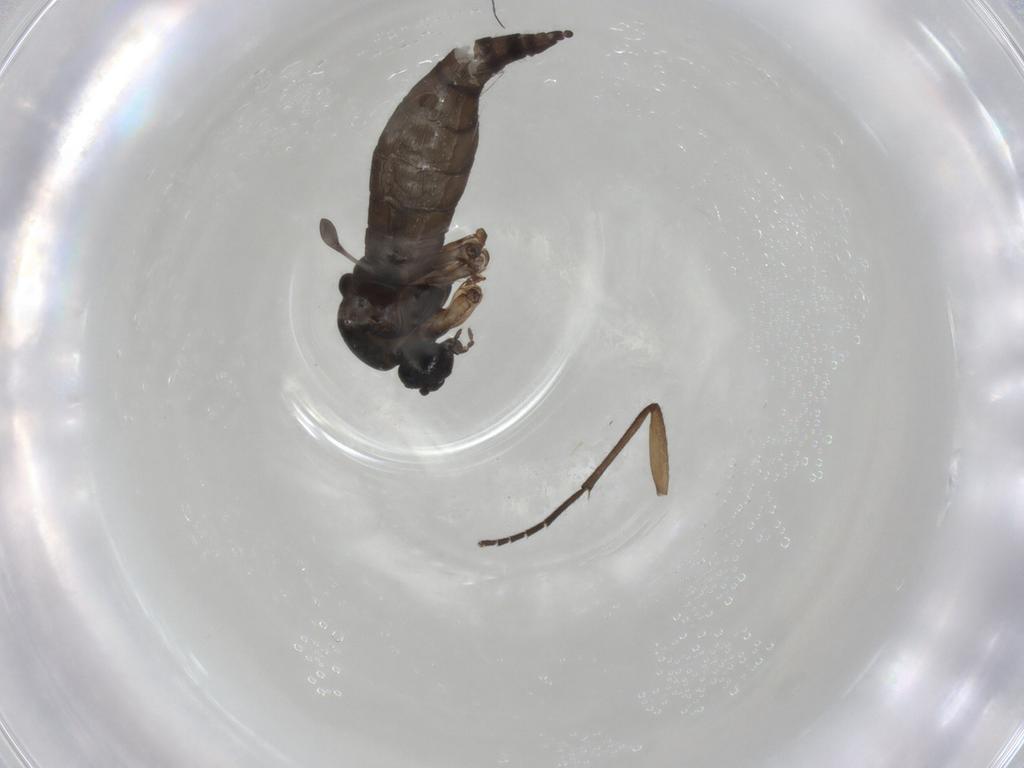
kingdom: Animalia
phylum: Arthropoda
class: Insecta
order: Diptera
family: Sciaridae
